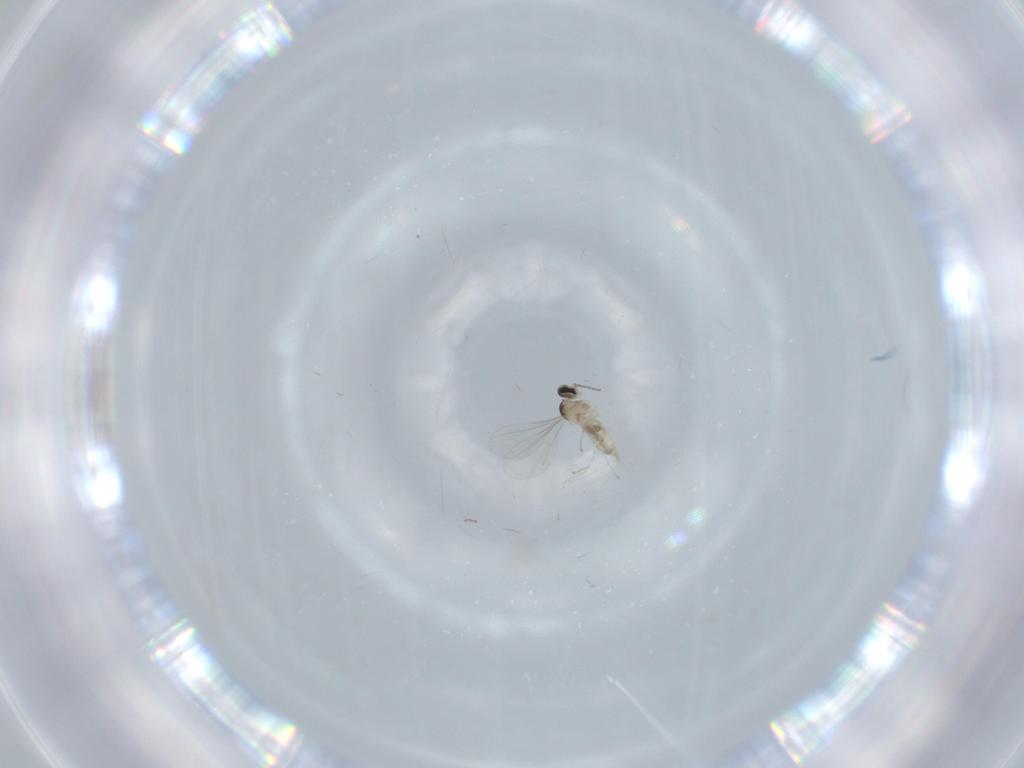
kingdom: Animalia
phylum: Arthropoda
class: Insecta
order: Diptera
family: Cecidomyiidae
